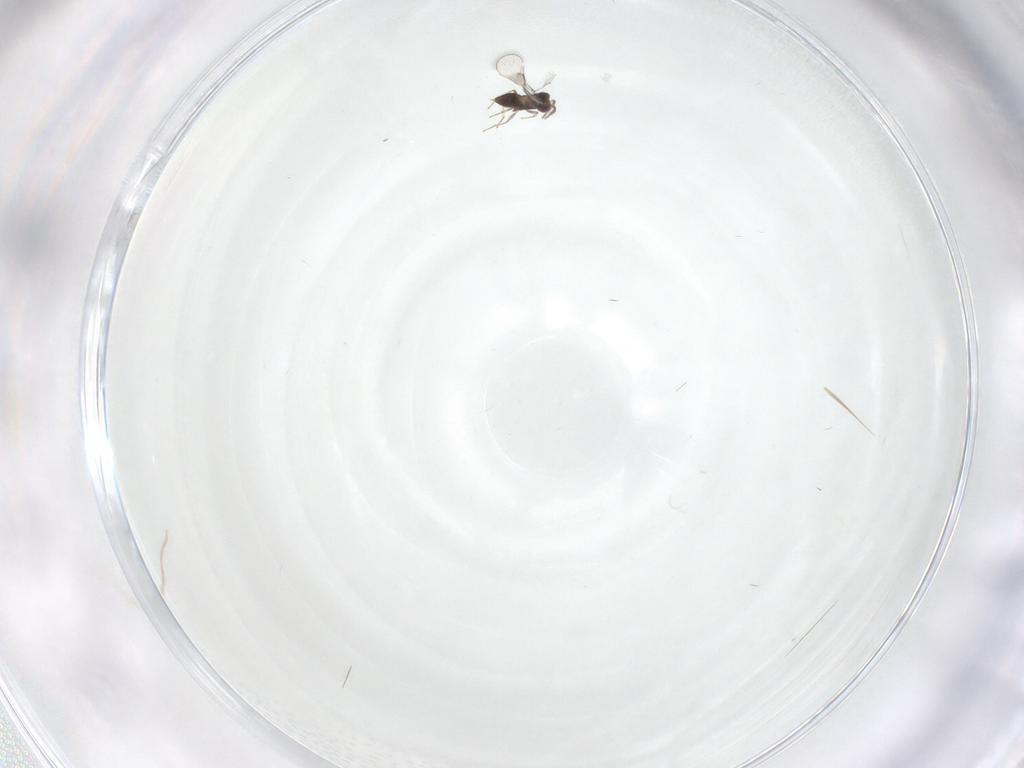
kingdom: Animalia
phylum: Arthropoda
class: Insecta
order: Hymenoptera
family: Trichogrammatidae
